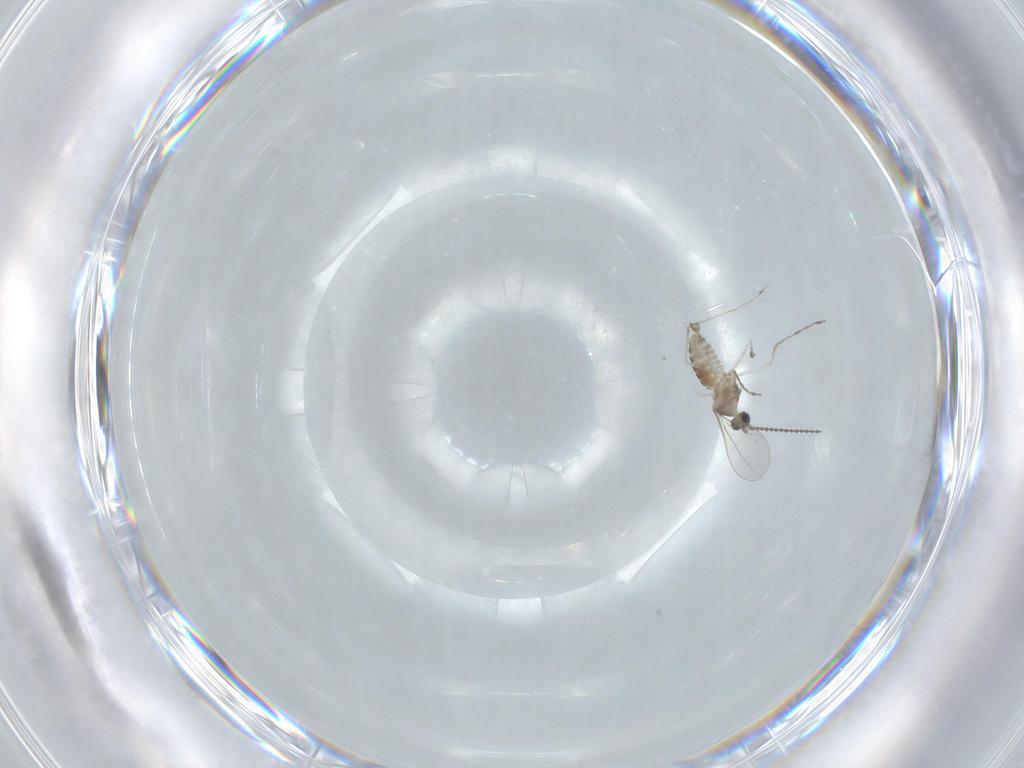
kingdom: Animalia
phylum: Arthropoda
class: Insecta
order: Diptera
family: Cecidomyiidae
